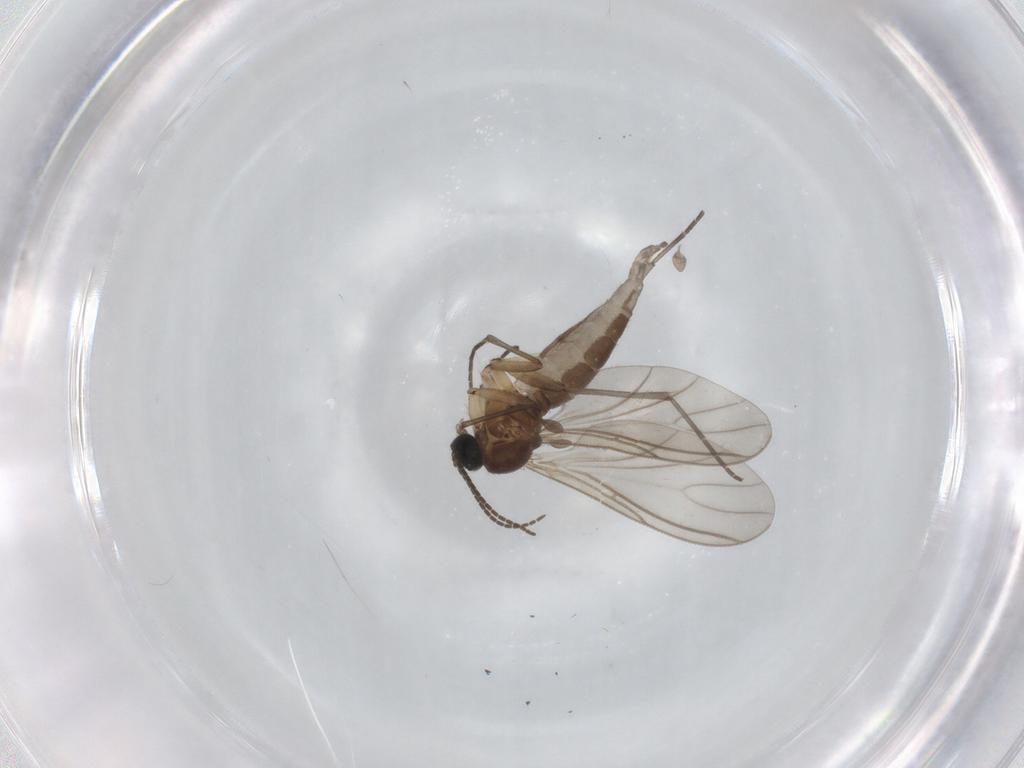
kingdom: Animalia
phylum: Arthropoda
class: Insecta
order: Diptera
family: Sciaridae
